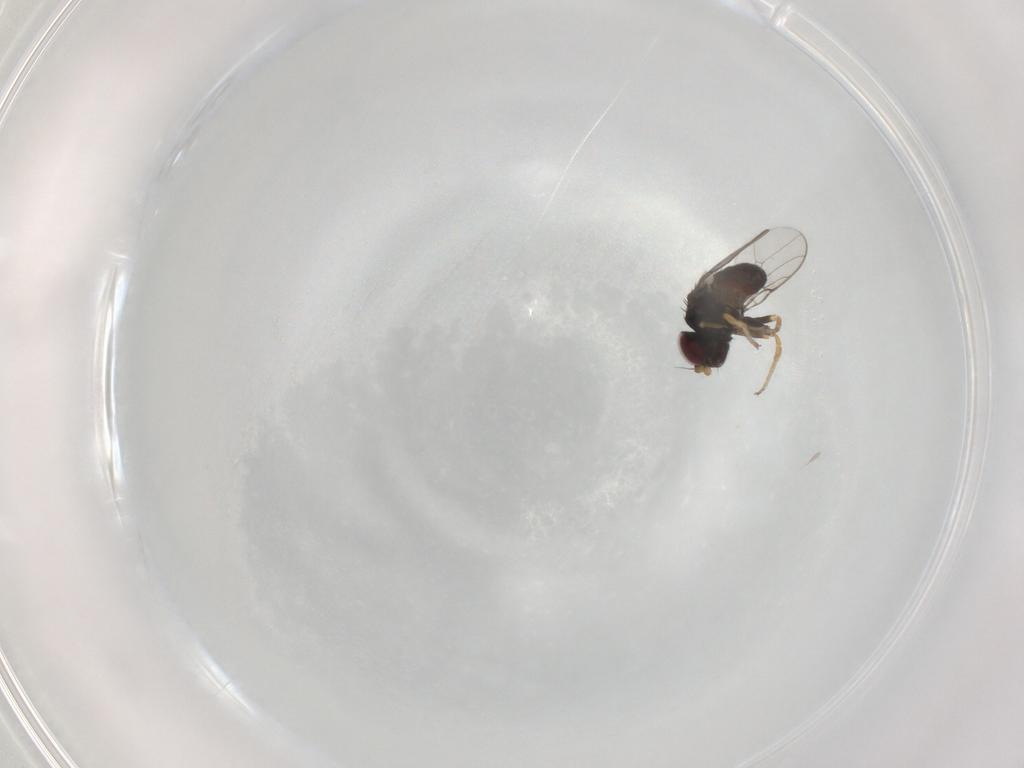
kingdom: Animalia
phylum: Arthropoda
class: Insecta
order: Diptera
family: Chloropidae
